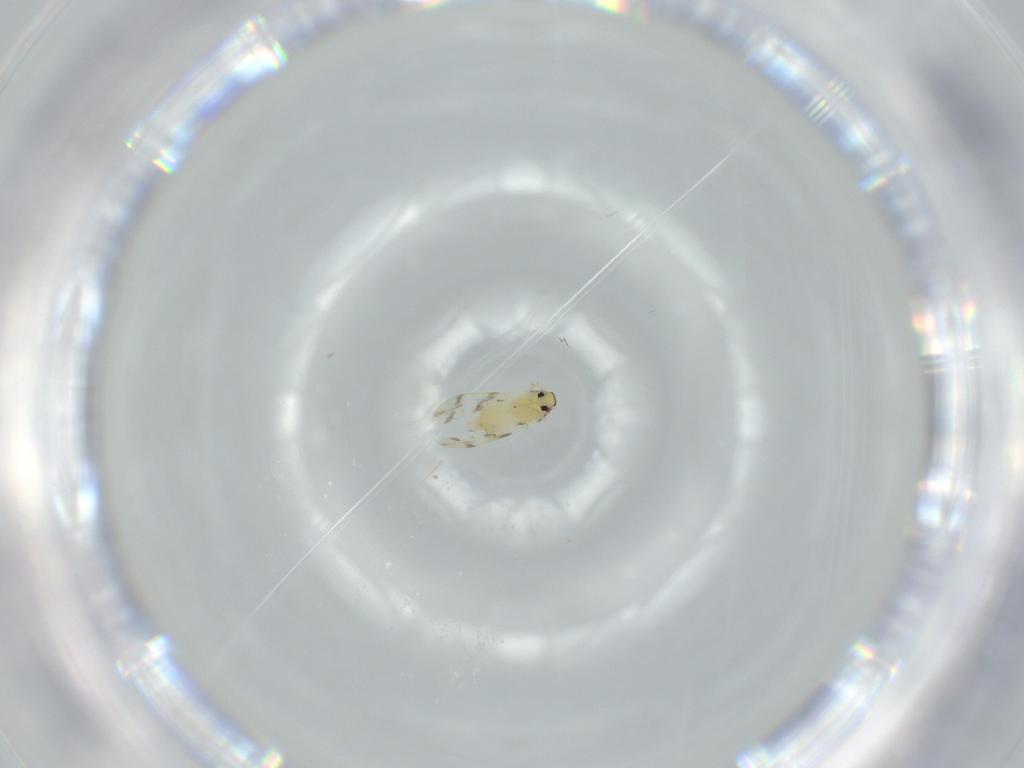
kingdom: Animalia
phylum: Arthropoda
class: Insecta
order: Hemiptera
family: Aleyrodidae
